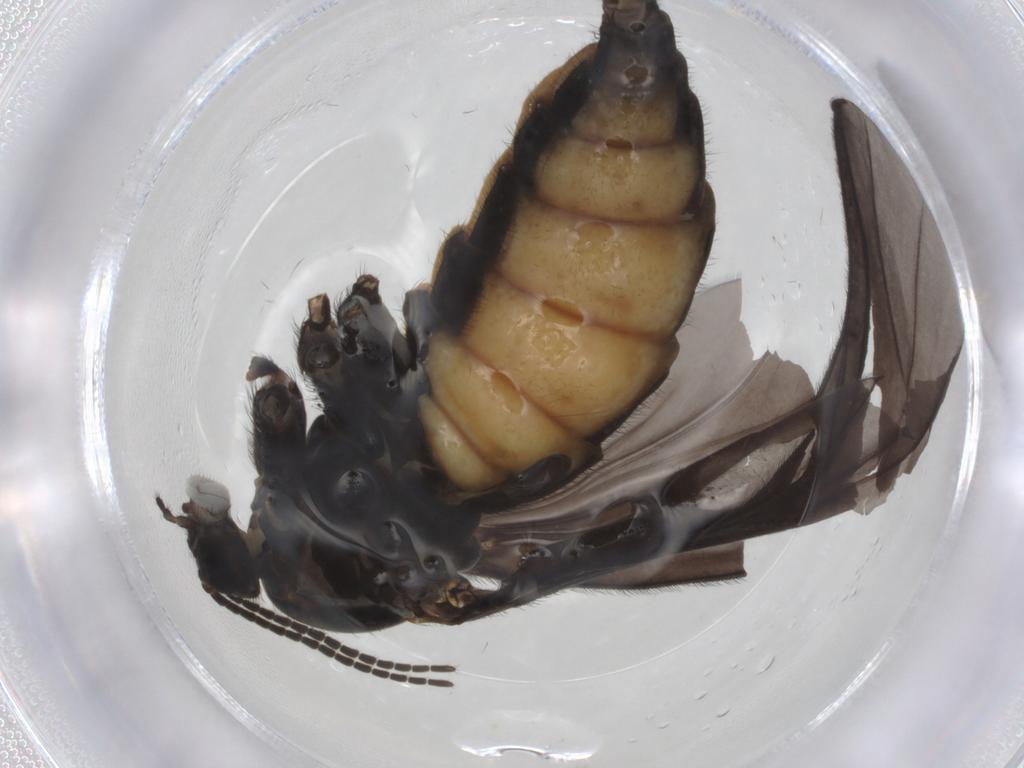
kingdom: Animalia
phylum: Arthropoda
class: Insecta
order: Diptera
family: Sciaridae
